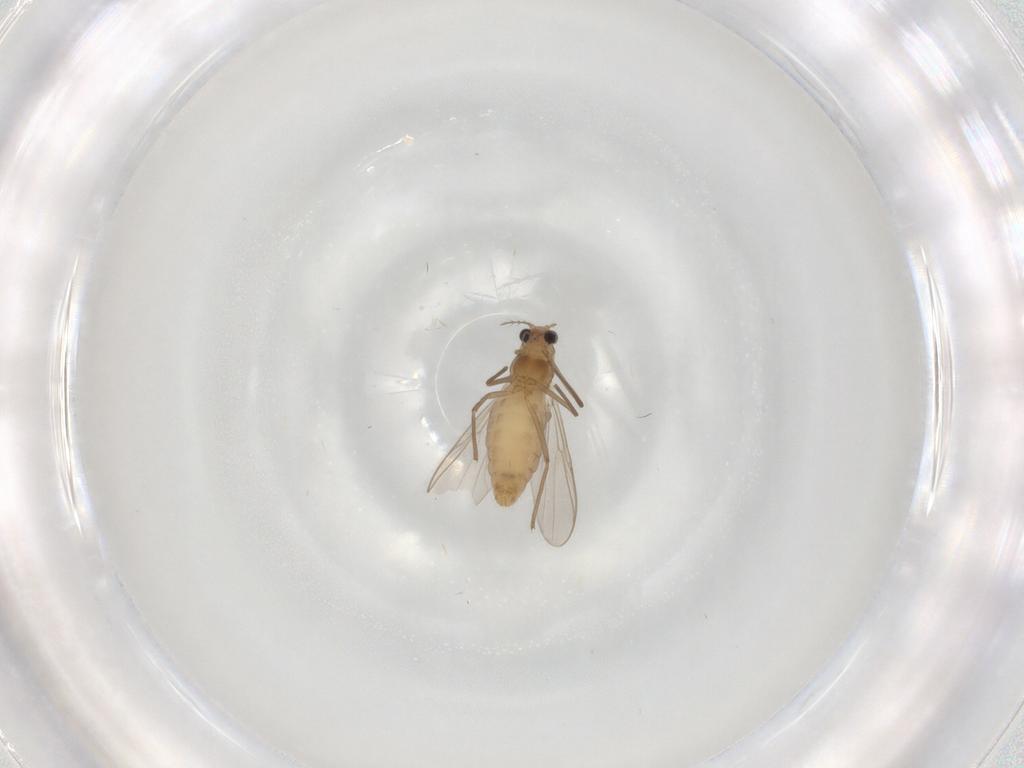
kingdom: Animalia
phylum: Arthropoda
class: Insecta
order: Diptera
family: Chironomidae
